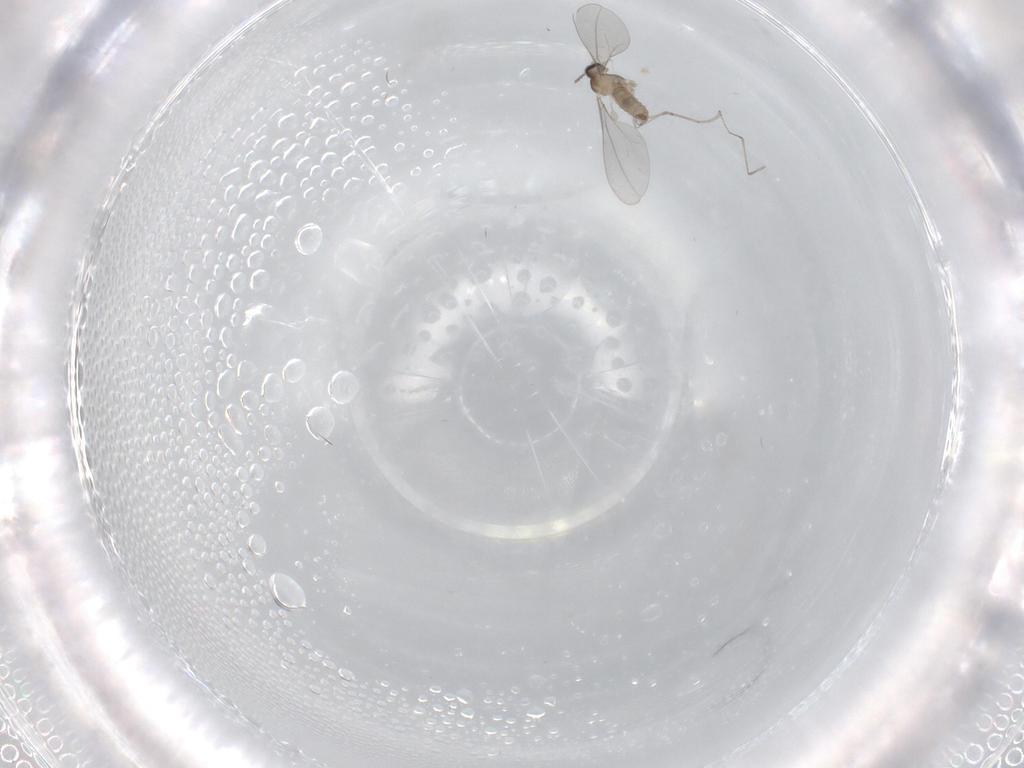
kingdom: Animalia
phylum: Arthropoda
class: Insecta
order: Diptera
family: Cecidomyiidae
